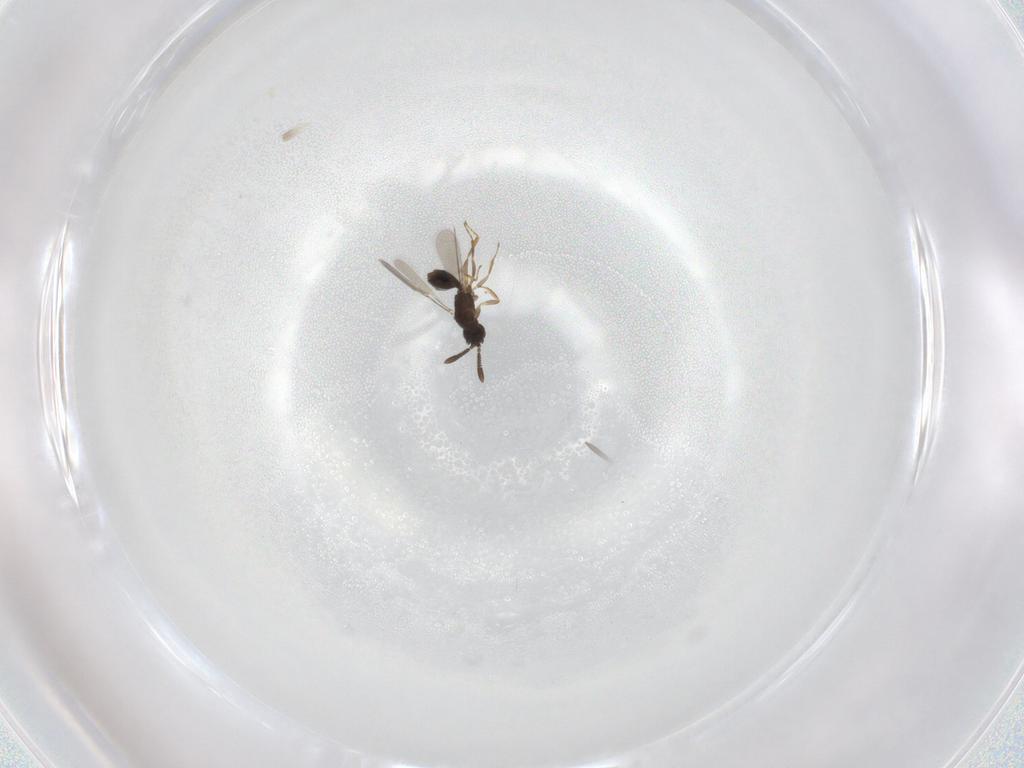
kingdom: Animalia
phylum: Arthropoda
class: Insecta
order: Hymenoptera
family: Mymaridae
